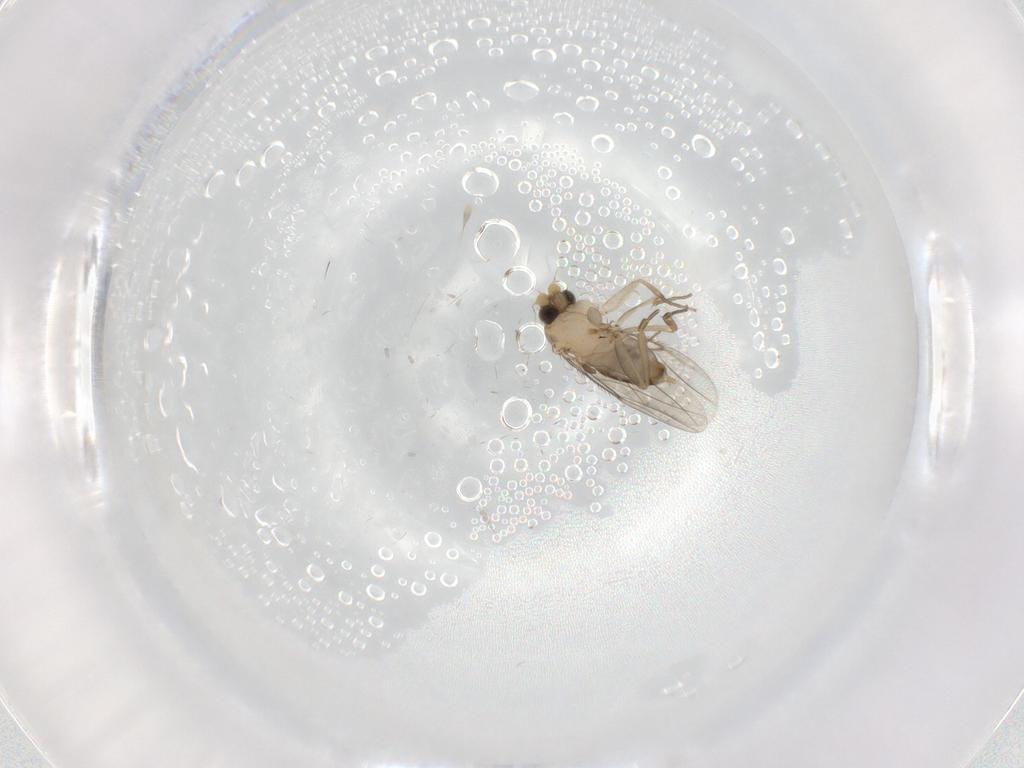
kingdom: Animalia
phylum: Arthropoda
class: Insecta
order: Diptera
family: Phoridae
